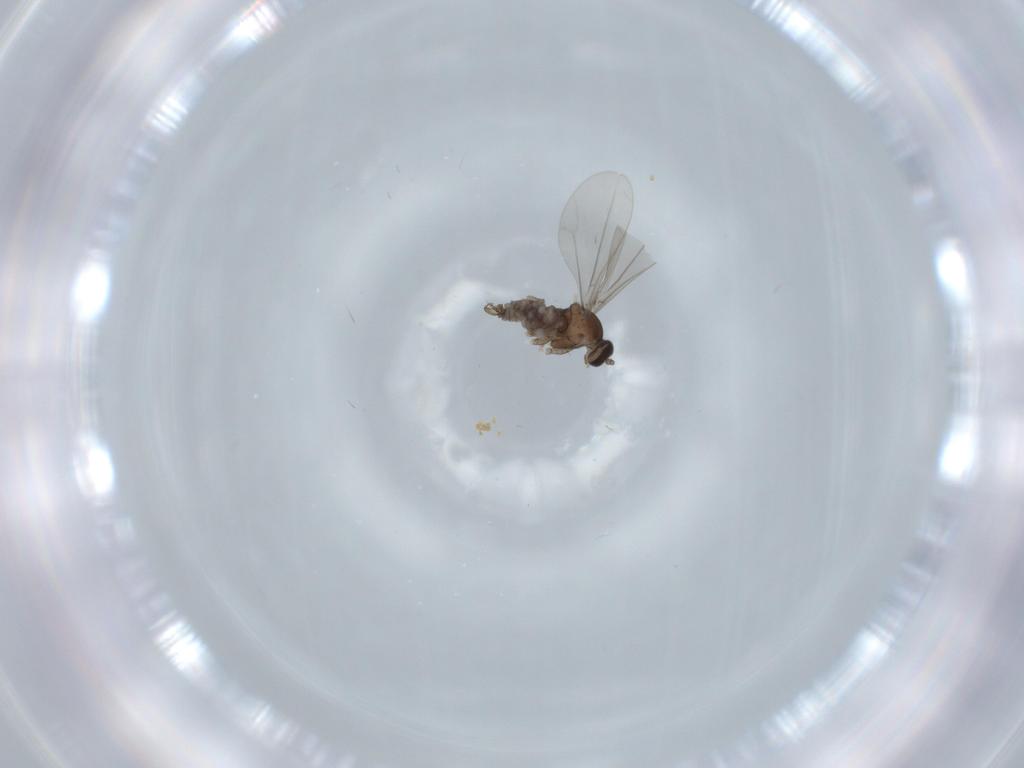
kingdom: Animalia
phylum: Arthropoda
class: Insecta
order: Diptera
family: Cecidomyiidae
